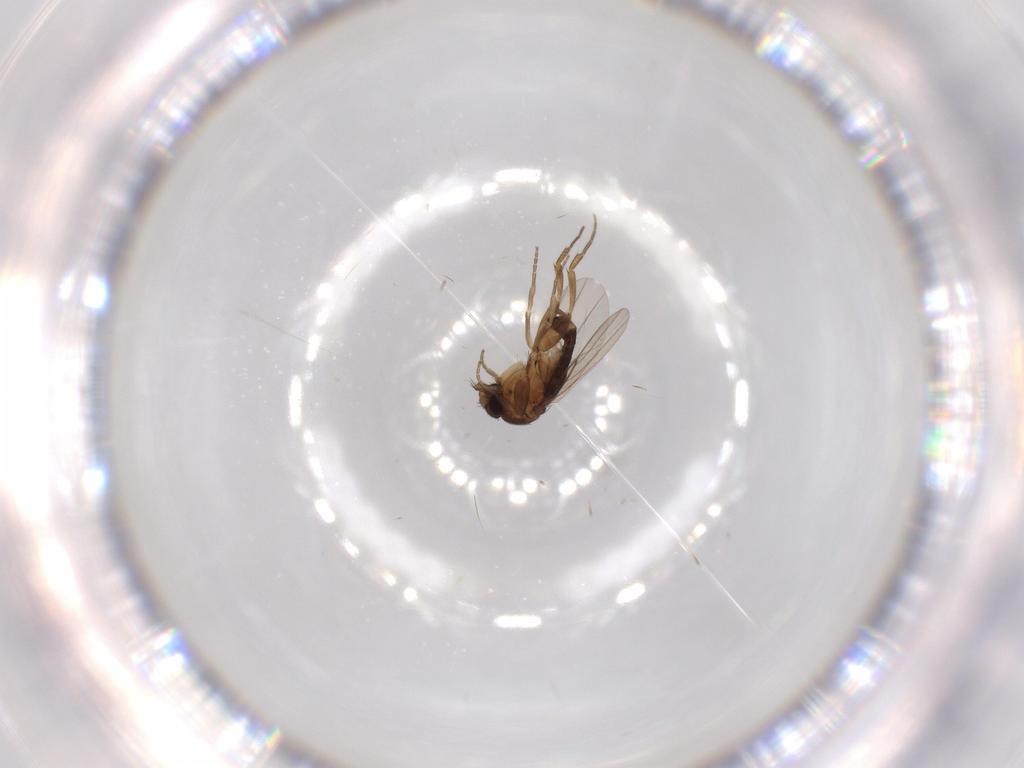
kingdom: Animalia
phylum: Arthropoda
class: Insecta
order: Diptera
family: Phoridae
